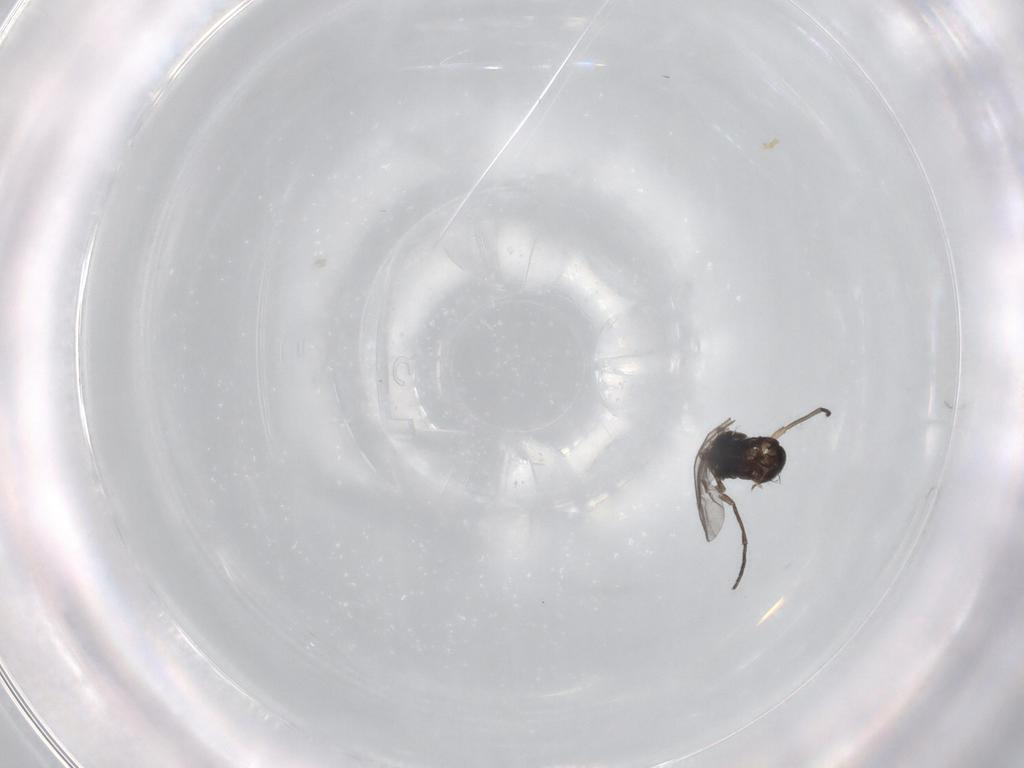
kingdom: Animalia
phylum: Arthropoda
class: Insecta
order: Diptera
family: Sciaridae
